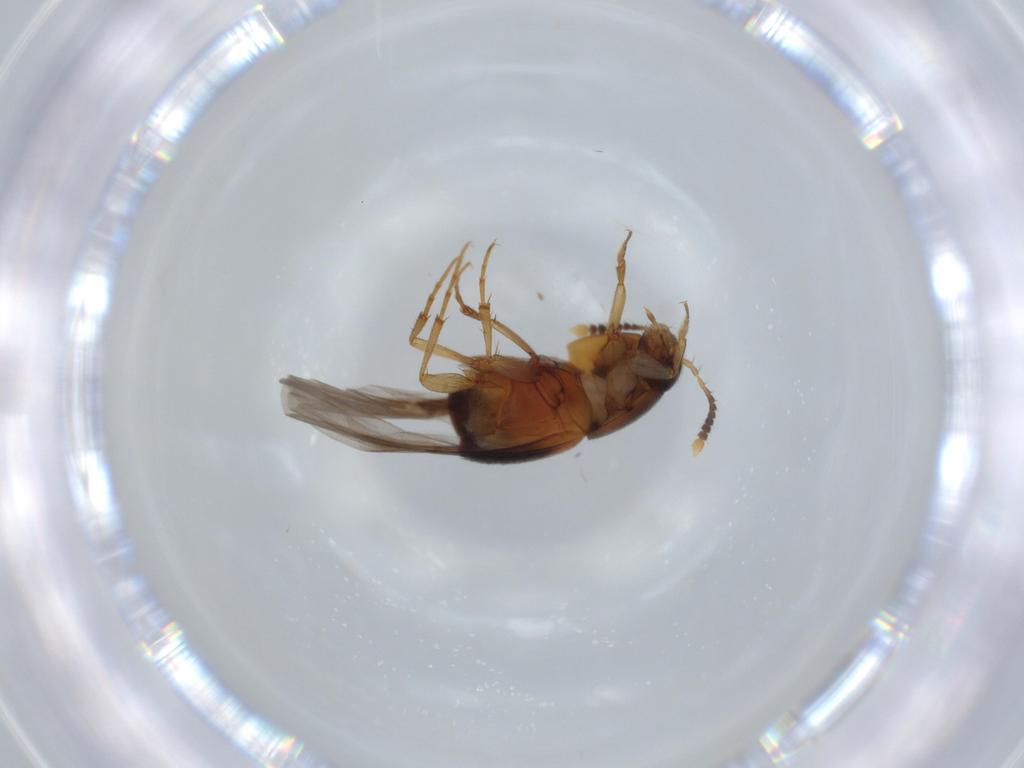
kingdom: Animalia
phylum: Arthropoda
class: Insecta
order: Coleoptera
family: Staphylinidae
